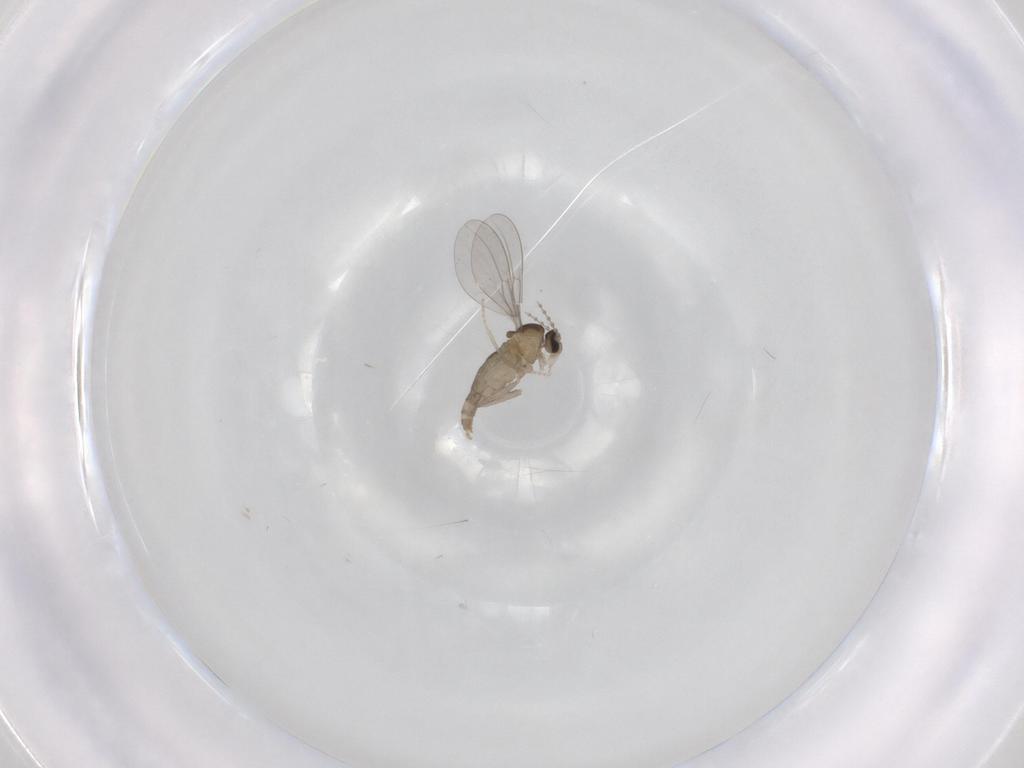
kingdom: Animalia
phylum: Arthropoda
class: Insecta
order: Diptera
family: Cecidomyiidae
